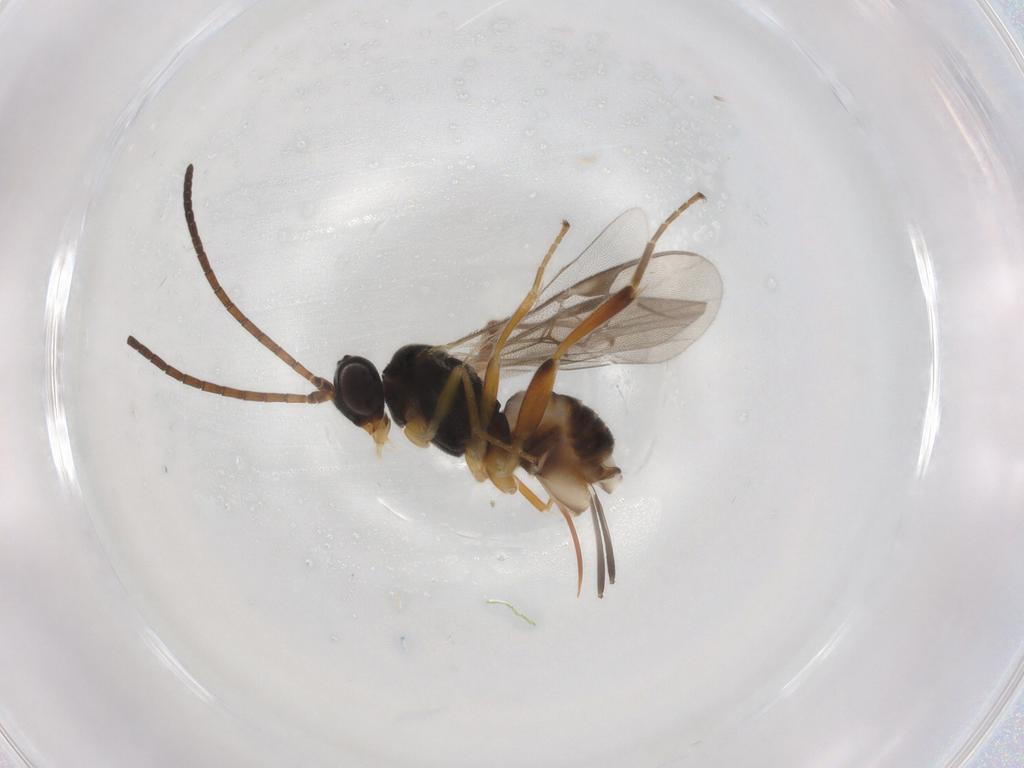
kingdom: Animalia
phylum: Arthropoda
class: Insecta
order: Hymenoptera
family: Braconidae
